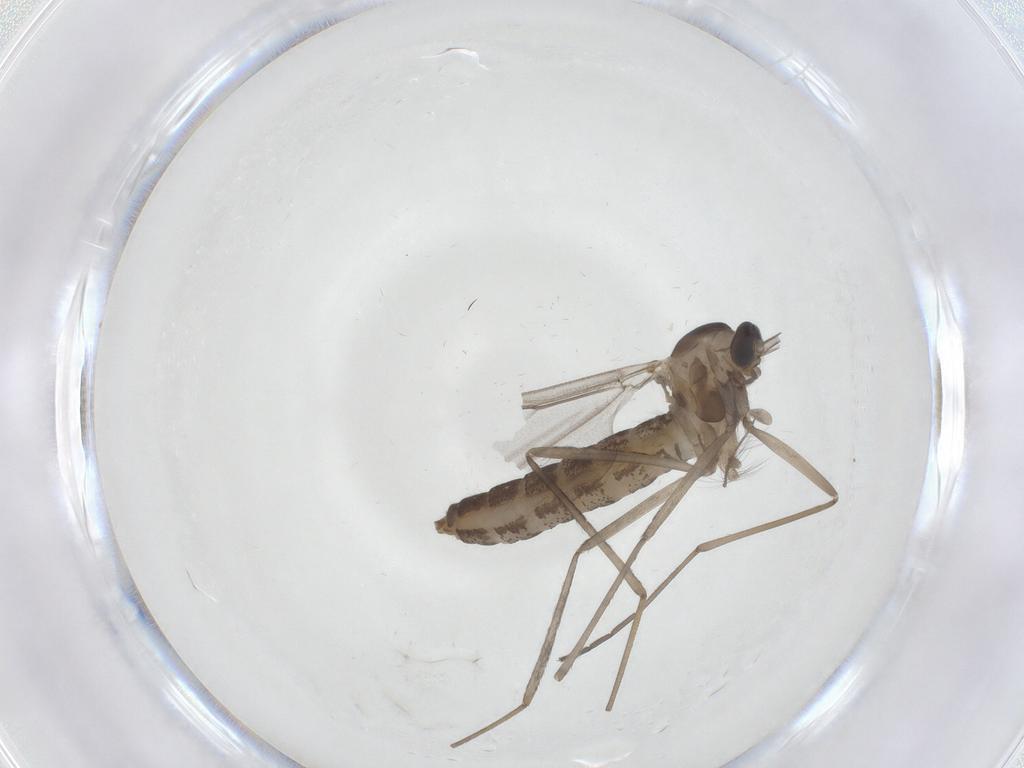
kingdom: Animalia
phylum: Arthropoda
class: Insecta
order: Diptera
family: Cecidomyiidae
